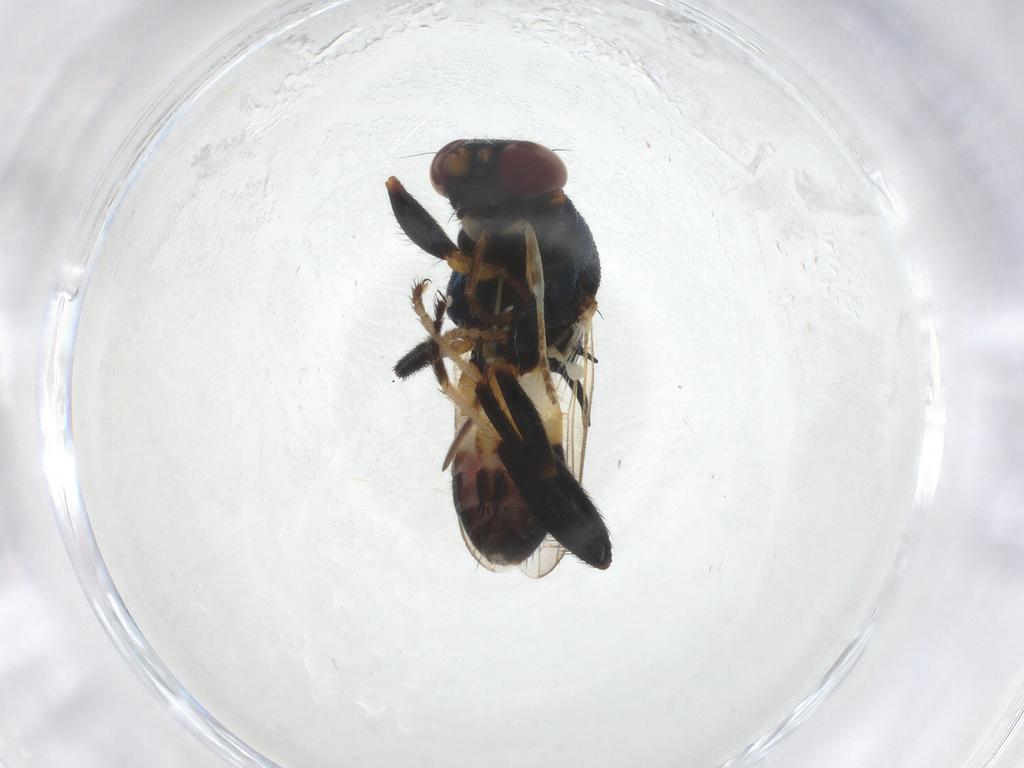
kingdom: Animalia
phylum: Arthropoda
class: Insecta
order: Diptera
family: Chloropidae
